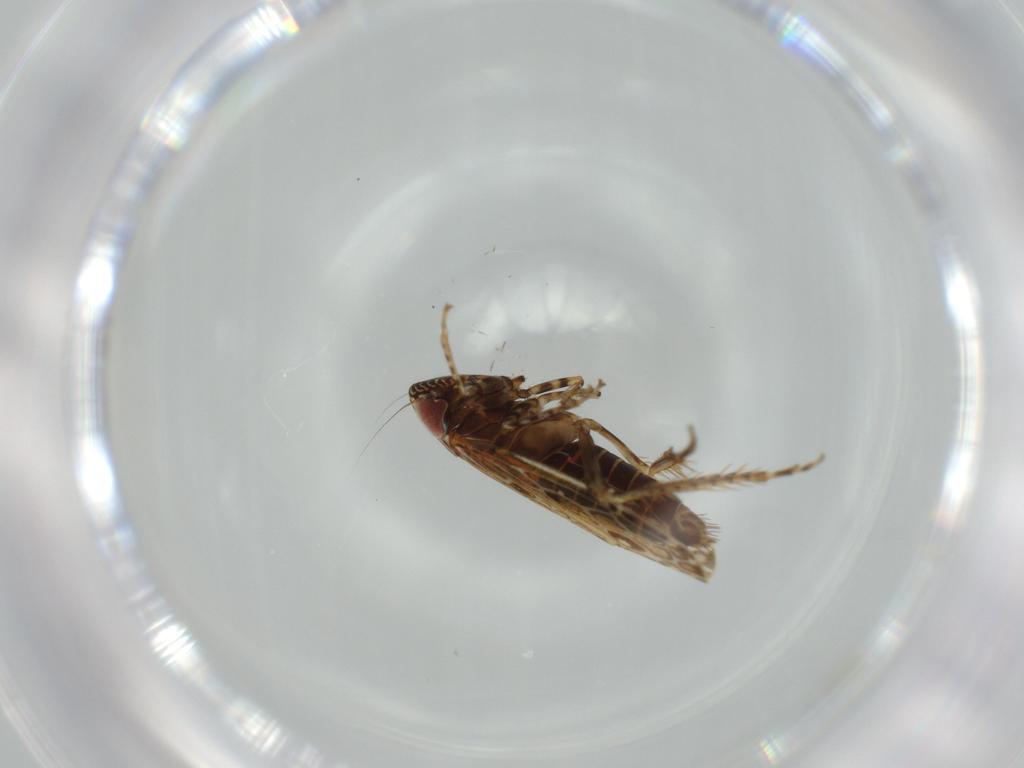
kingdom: Animalia
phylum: Arthropoda
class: Insecta
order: Hemiptera
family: Cicadellidae
